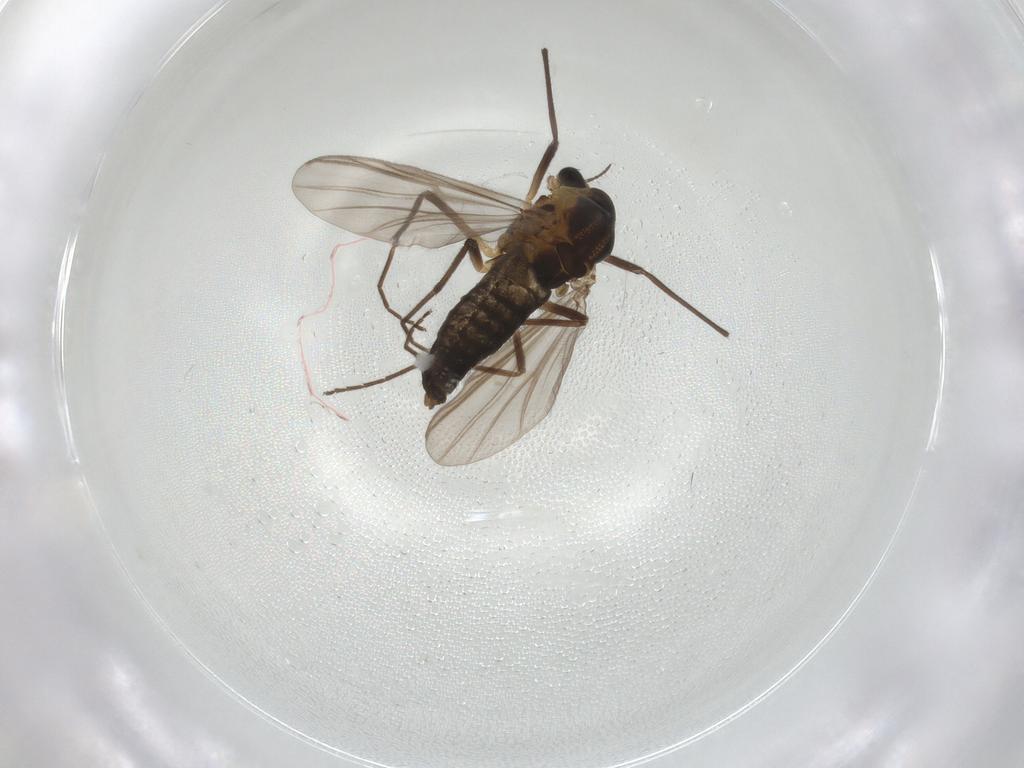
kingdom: Animalia
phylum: Arthropoda
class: Insecta
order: Diptera
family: Chironomidae
